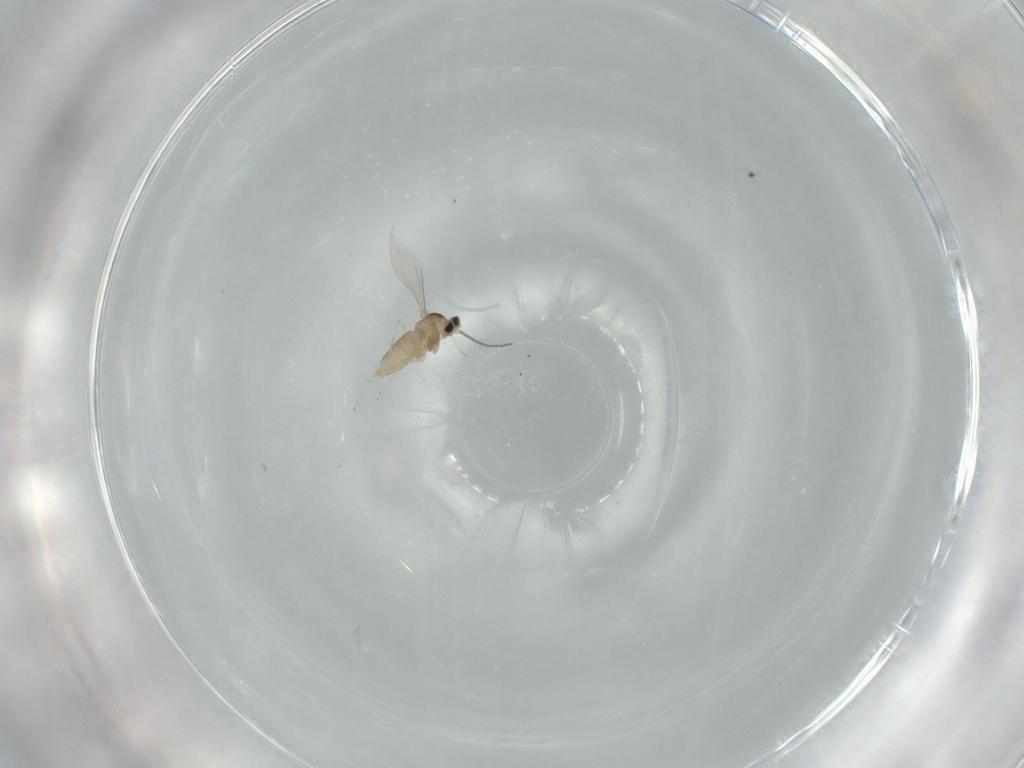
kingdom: Animalia
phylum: Arthropoda
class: Insecta
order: Diptera
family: Cecidomyiidae
